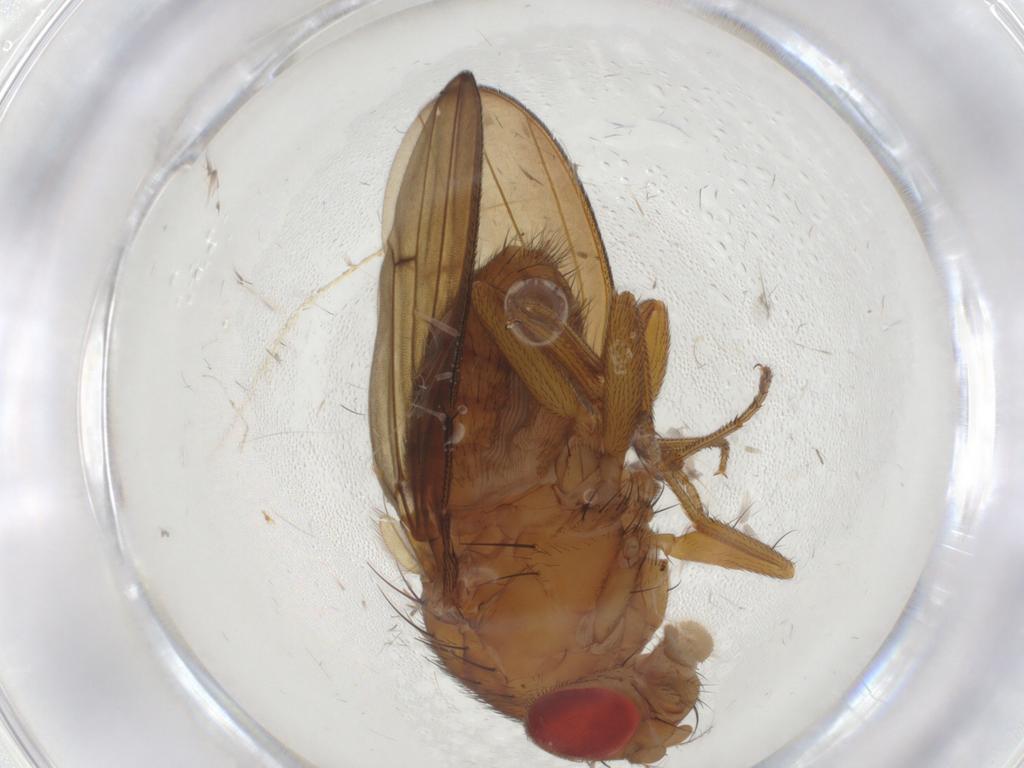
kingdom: Animalia
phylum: Arthropoda
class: Insecta
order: Diptera
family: Drosophilidae
